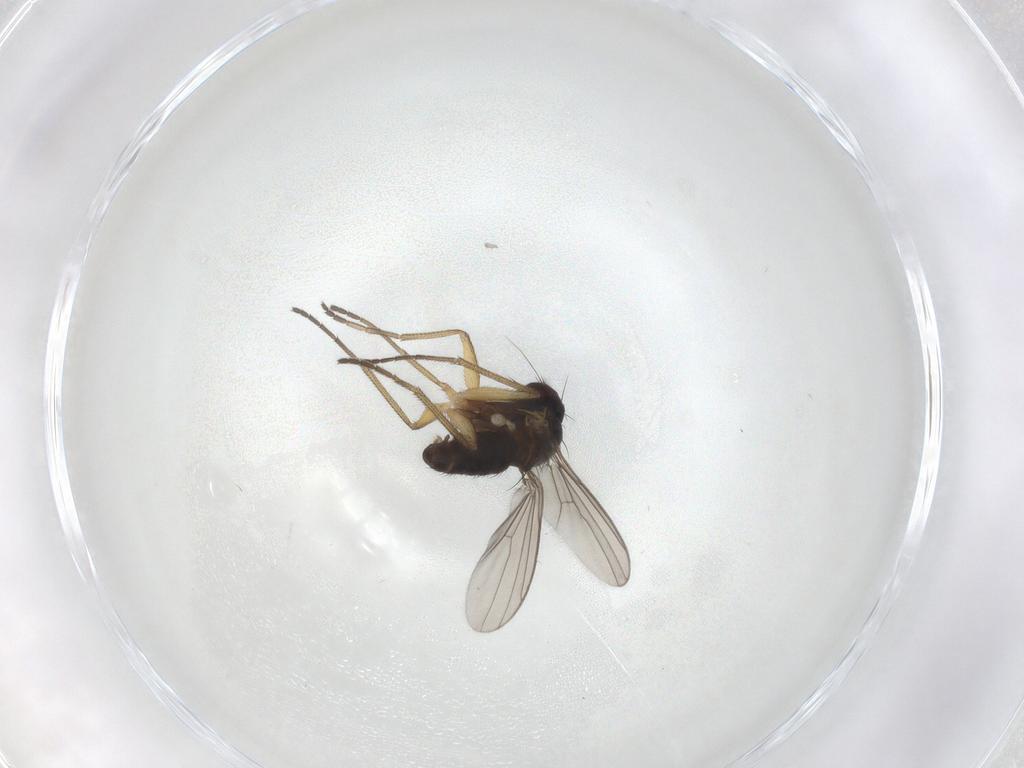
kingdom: Animalia
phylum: Arthropoda
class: Insecta
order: Diptera
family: Dolichopodidae
